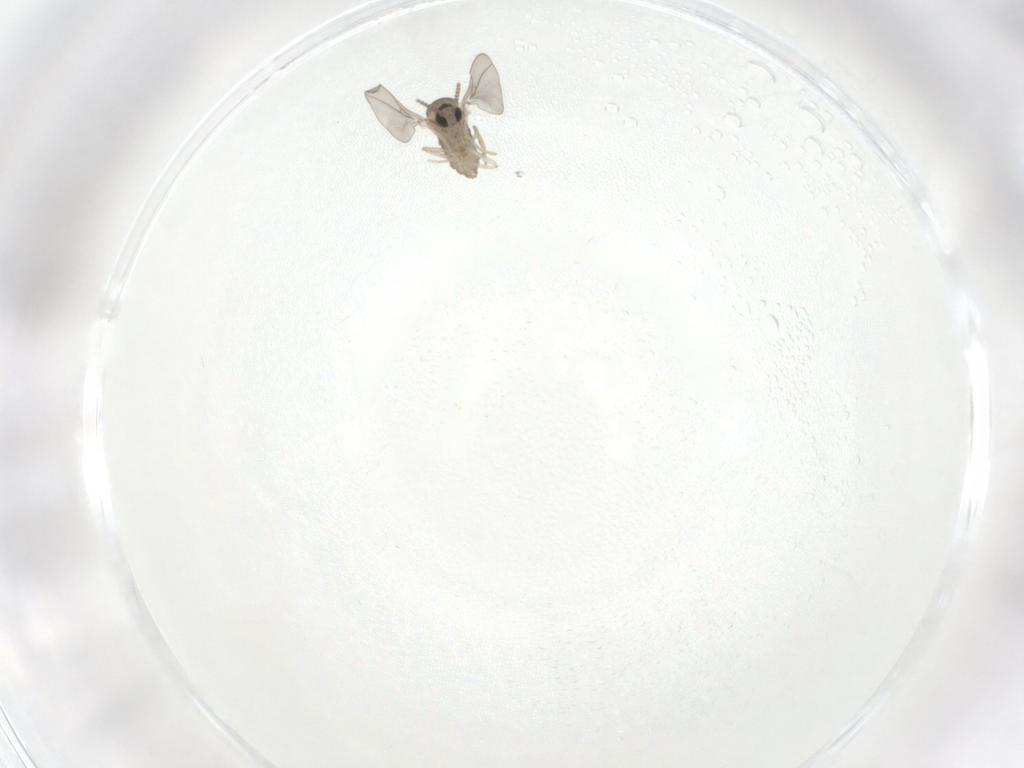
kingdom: Animalia
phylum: Arthropoda
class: Insecta
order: Diptera
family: Cecidomyiidae
